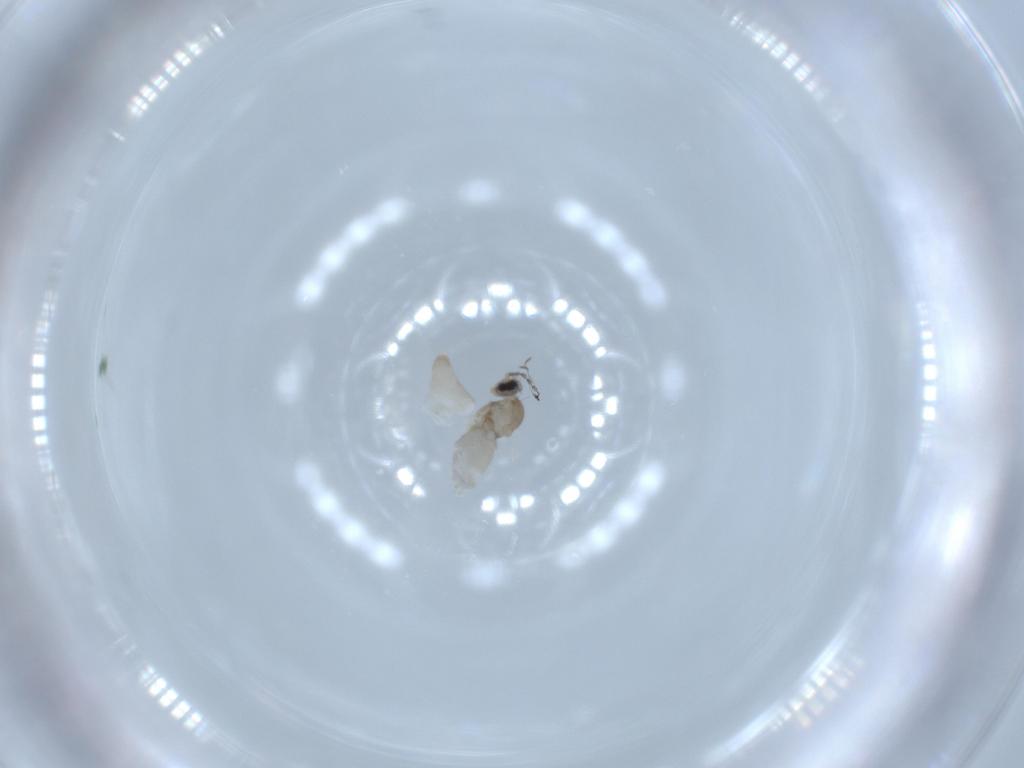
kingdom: Animalia
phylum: Arthropoda
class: Insecta
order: Diptera
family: Cecidomyiidae
